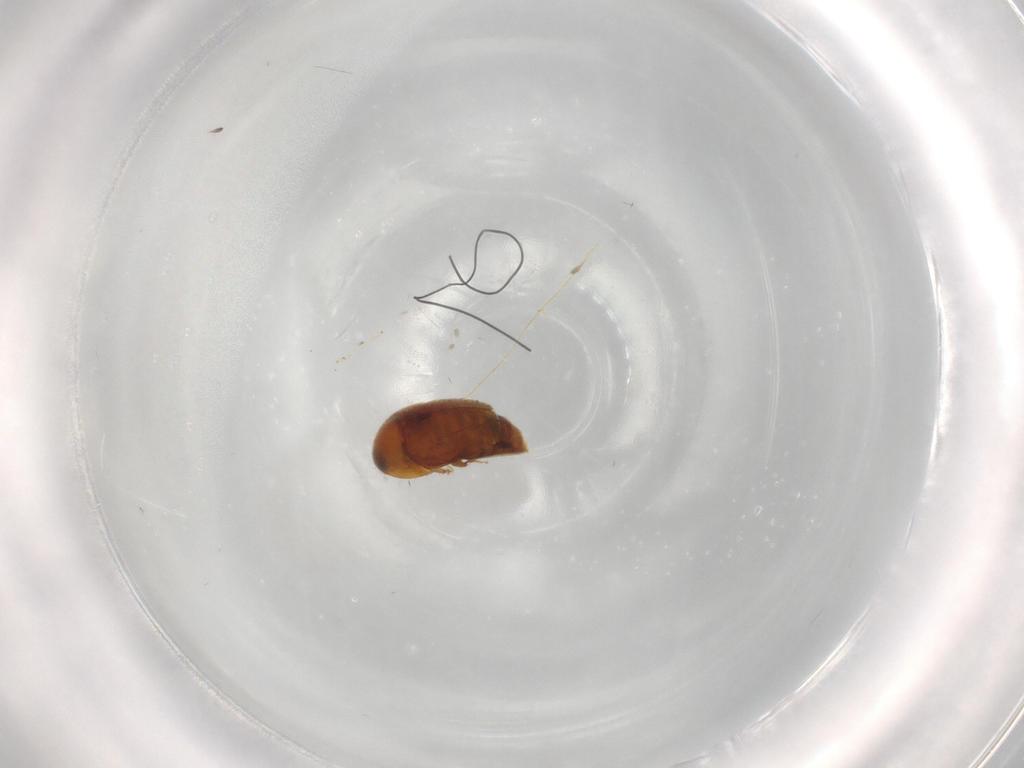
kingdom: Animalia
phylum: Arthropoda
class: Insecta
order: Coleoptera
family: Corylophidae
